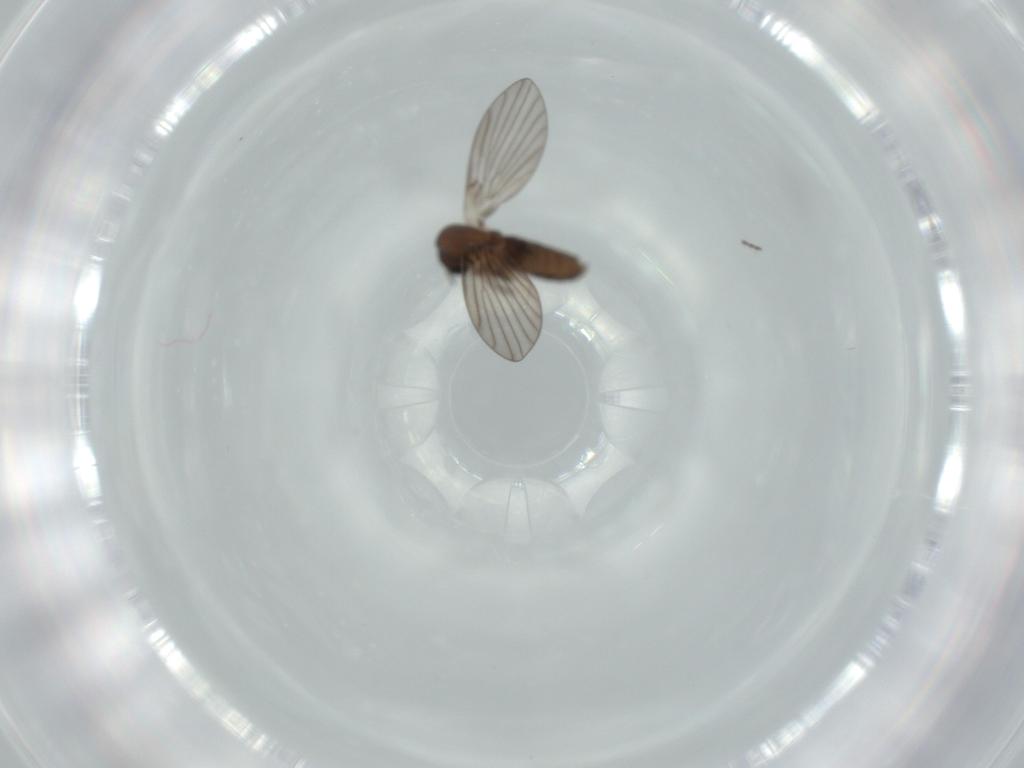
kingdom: Animalia
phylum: Arthropoda
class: Insecta
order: Diptera
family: Psychodidae
